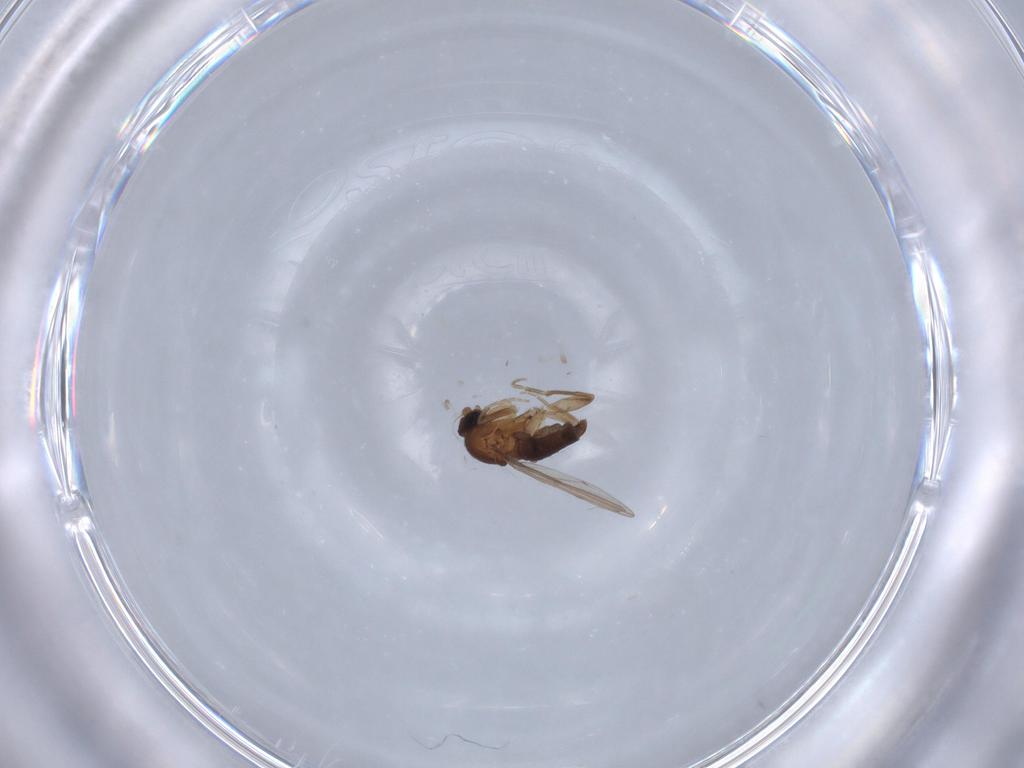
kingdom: Animalia
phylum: Arthropoda
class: Insecta
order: Diptera
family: Phoridae
